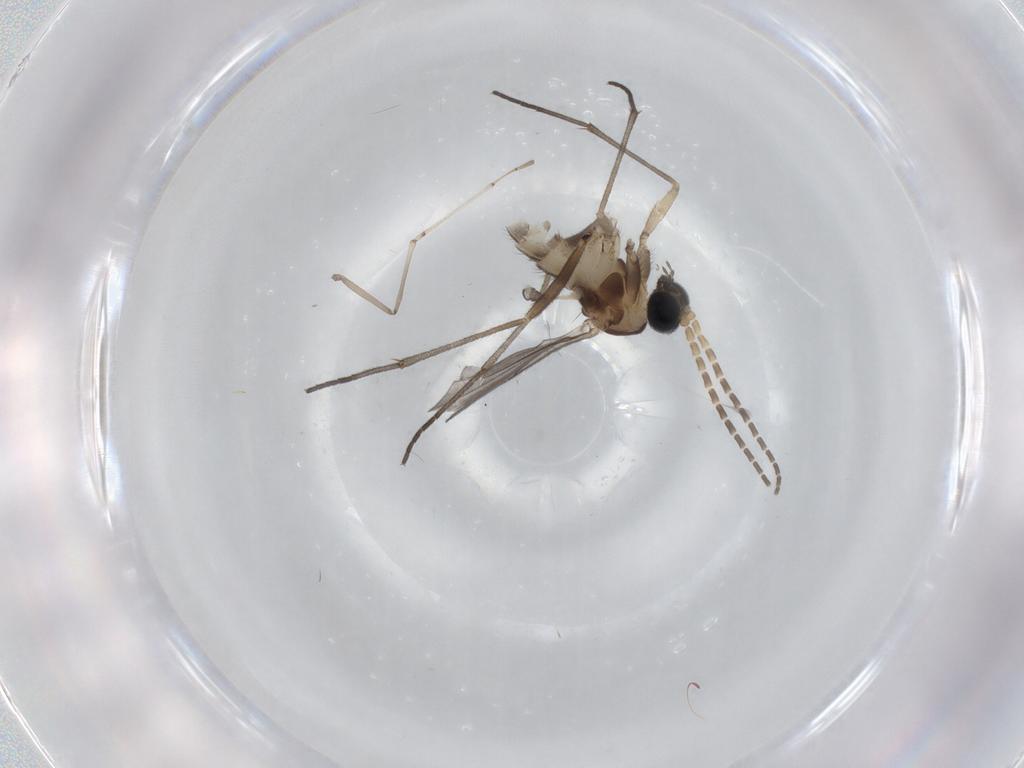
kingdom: Animalia
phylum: Arthropoda
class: Insecta
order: Diptera
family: Sciaridae
